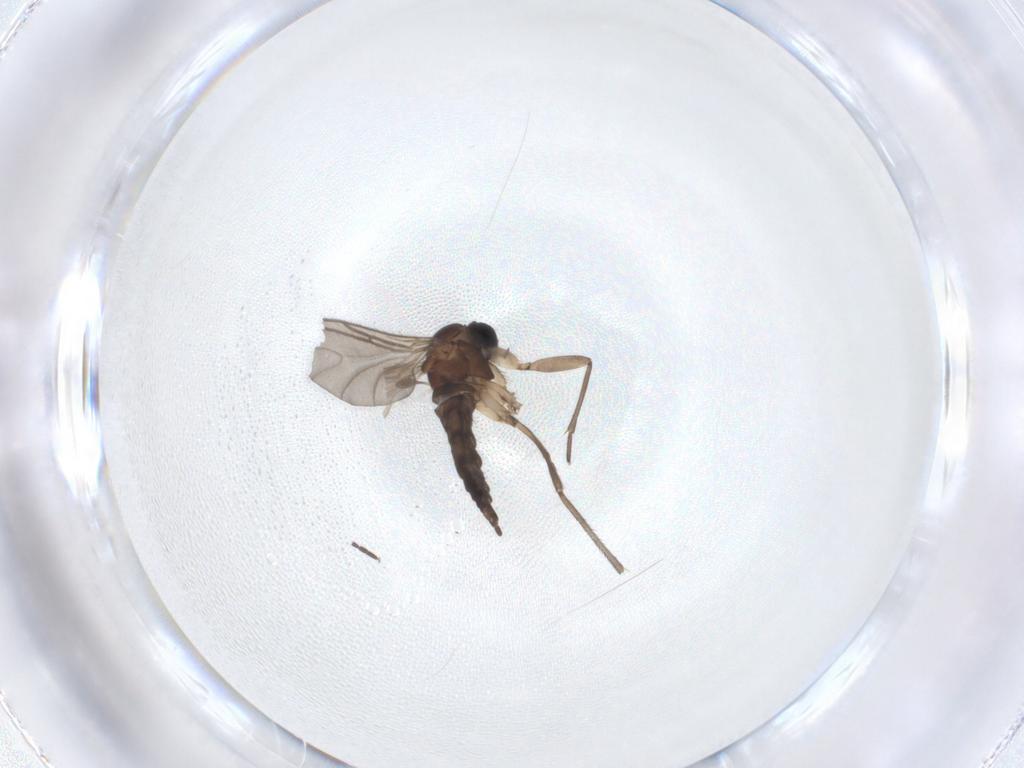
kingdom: Animalia
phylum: Arthropoda
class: Insecta
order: Diptera
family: Sciaridae
